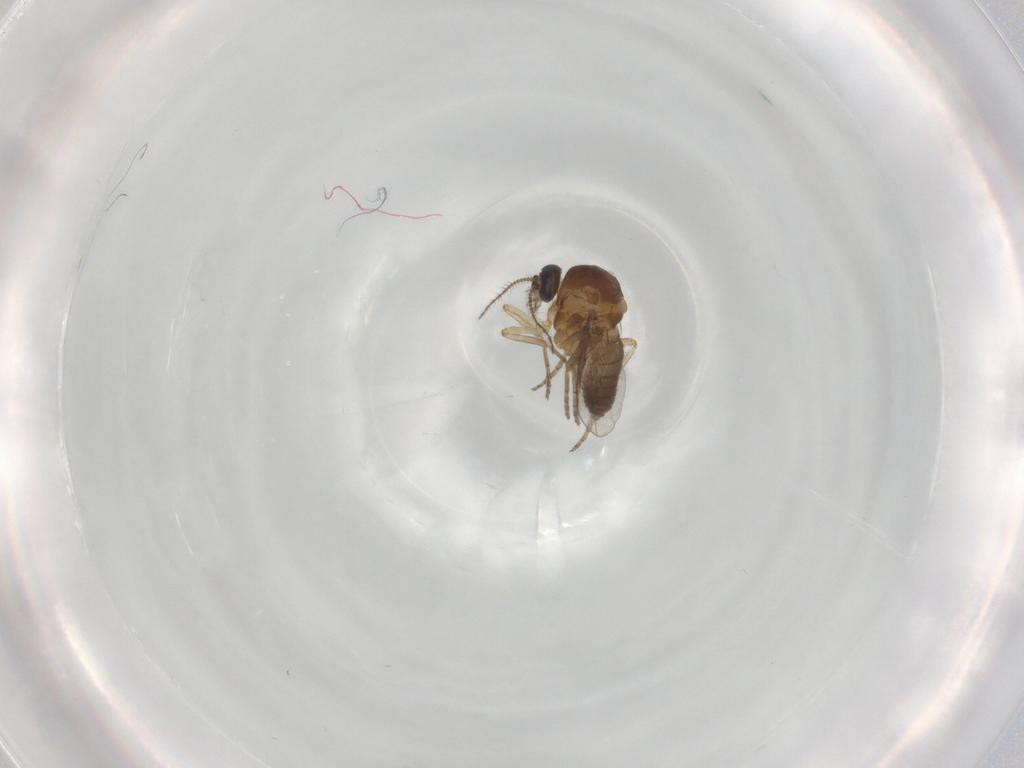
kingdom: Animalia
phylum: Arthropoda
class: Insecta
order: Diptera
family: Ceratopogonidae
